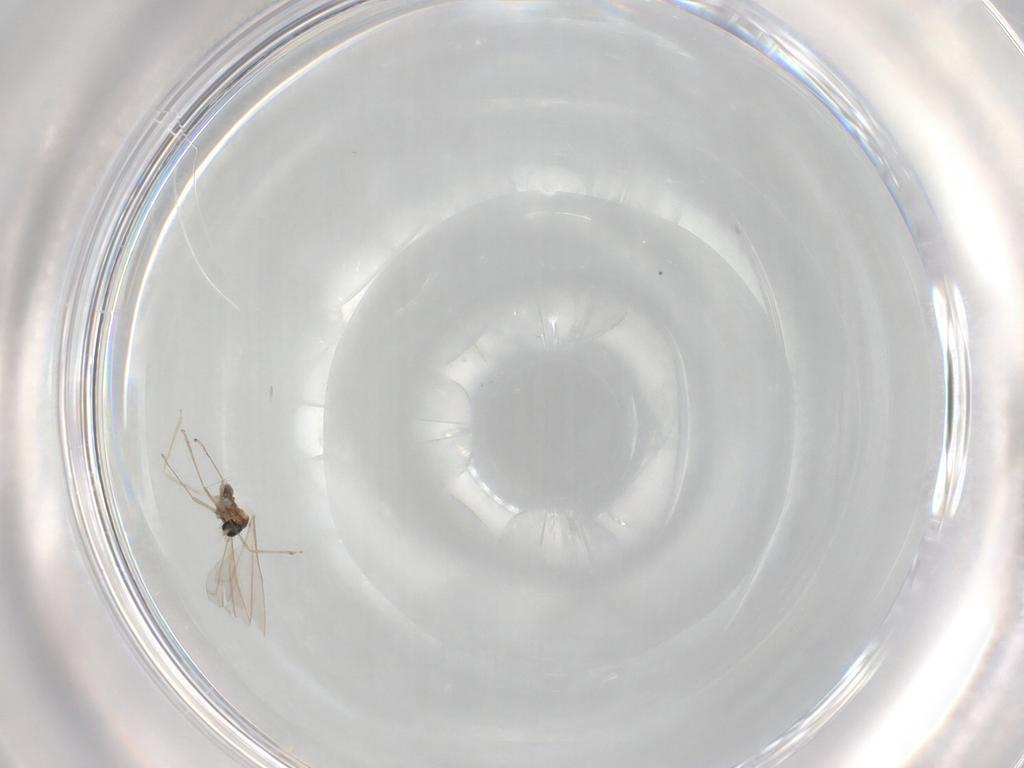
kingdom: Animalia
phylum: Arthropoda
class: Insecta
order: Diptera
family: Cecidomyiidae
